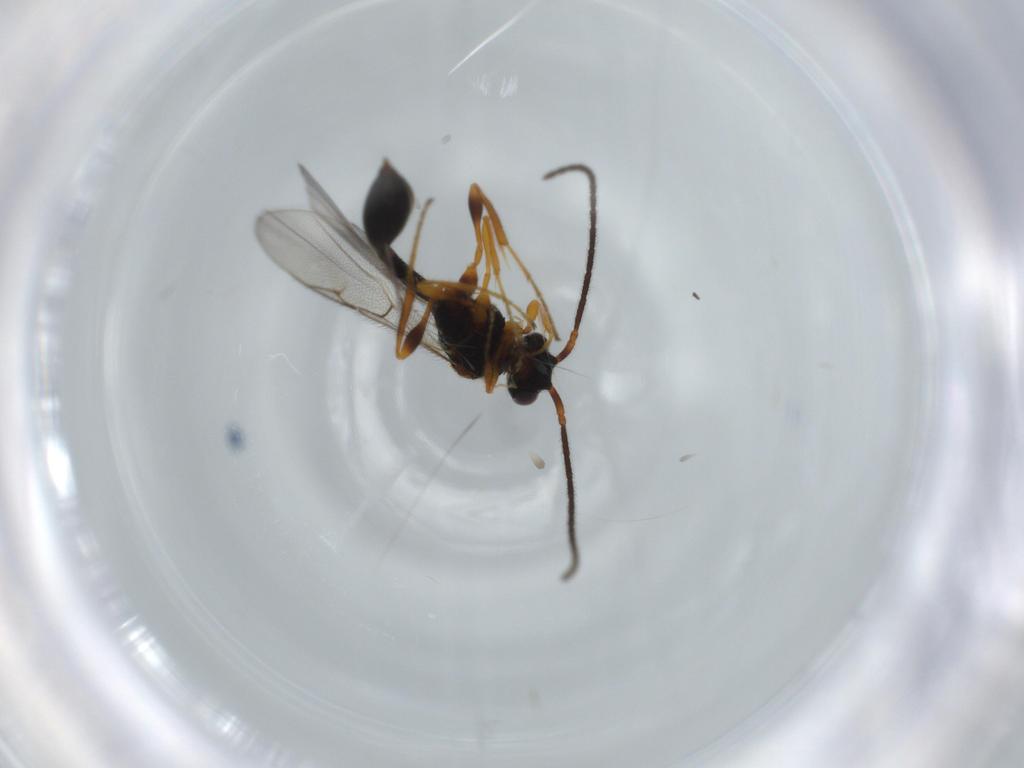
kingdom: Animalia
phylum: Arthropoda
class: Insecta
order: Hymenoptera
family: Diapriidae
